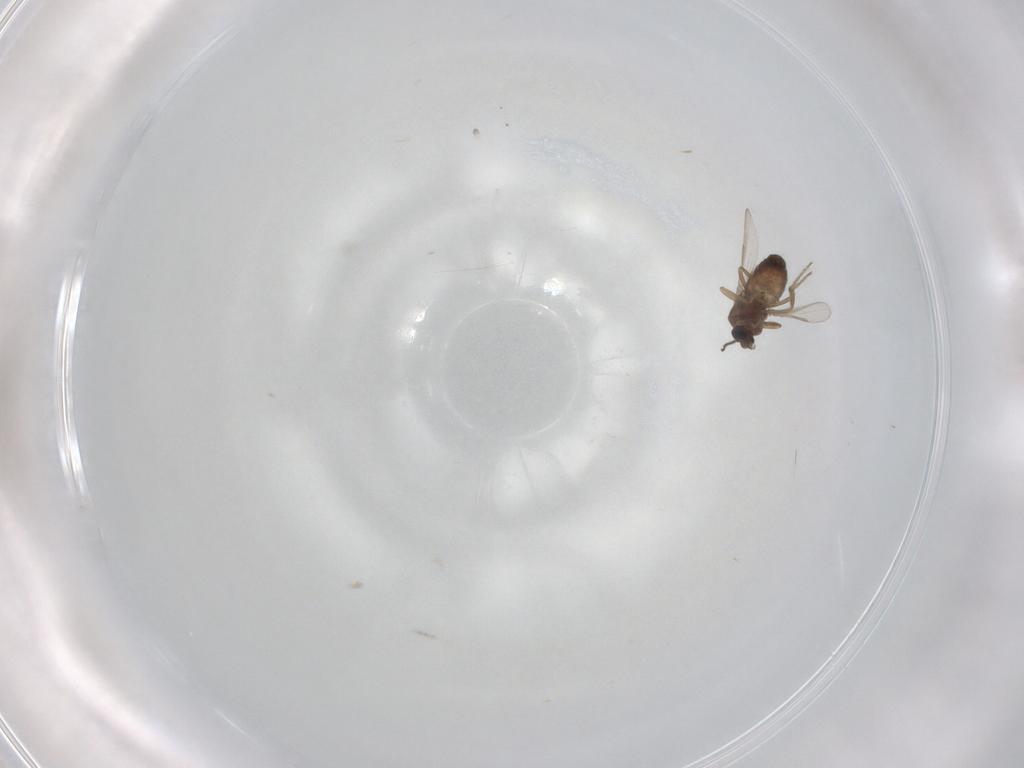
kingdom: Animalia
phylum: Arthropoda
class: Insecta
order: Diptera
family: Ceratopogonidae
